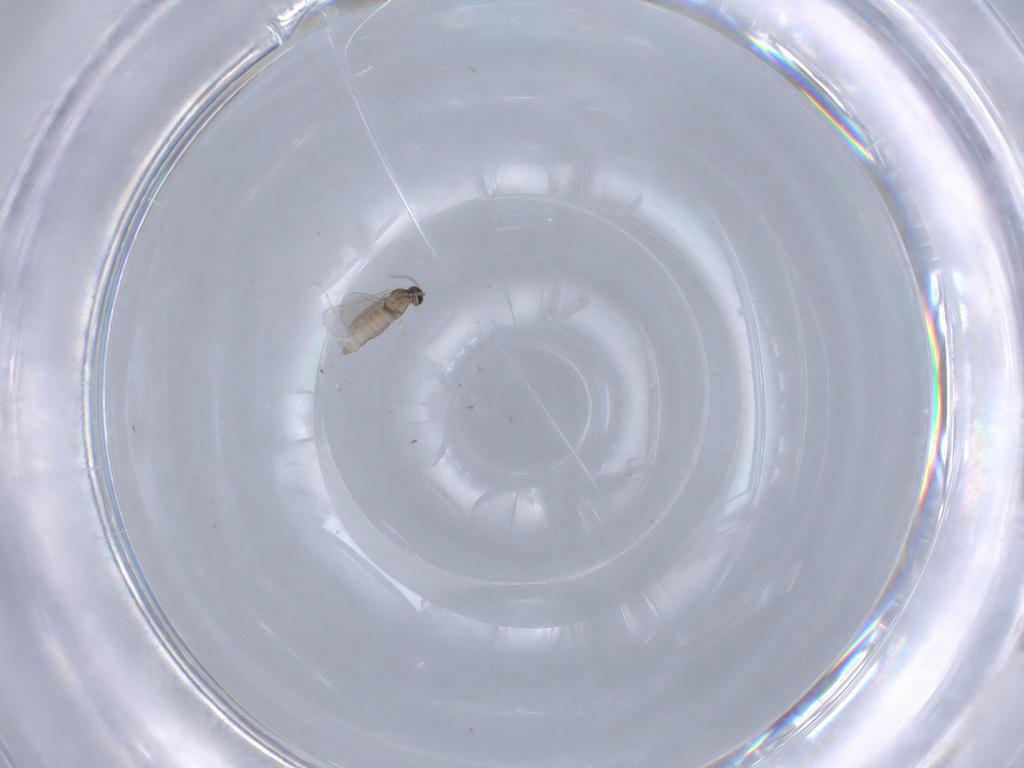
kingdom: Animalia
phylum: Arthropoda
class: Insecta
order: Diptera
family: Cecidomyiidae
